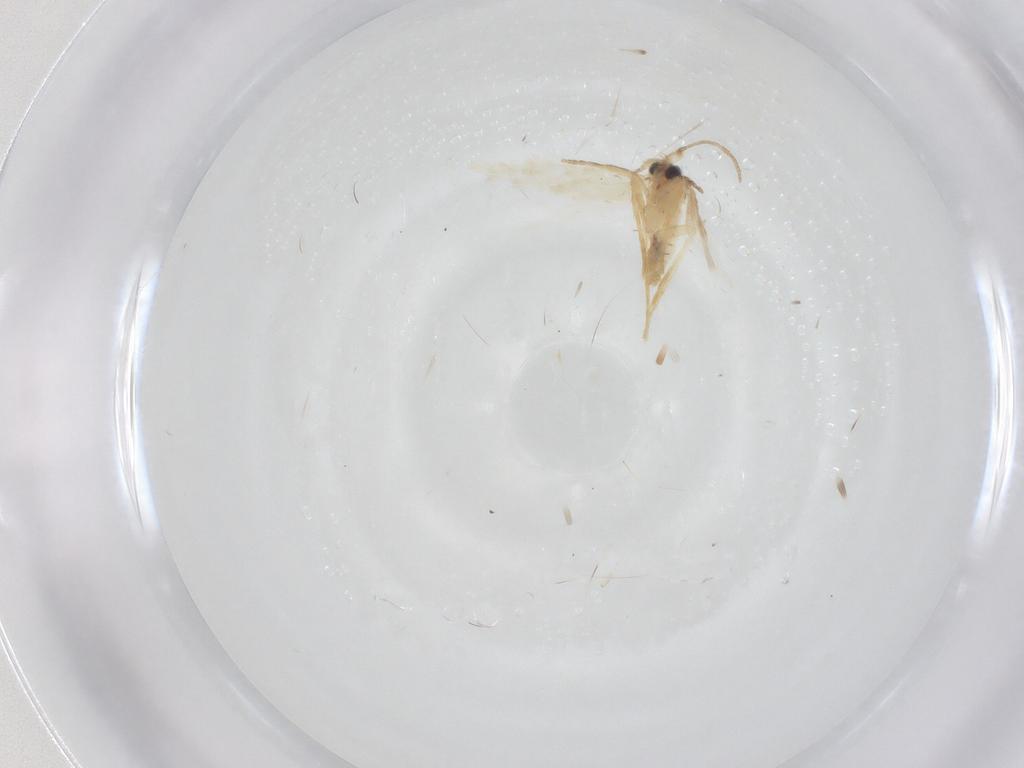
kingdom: Animalia
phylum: Arthropoda
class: Insecta
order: Lepidoptera
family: Nepticulidae
